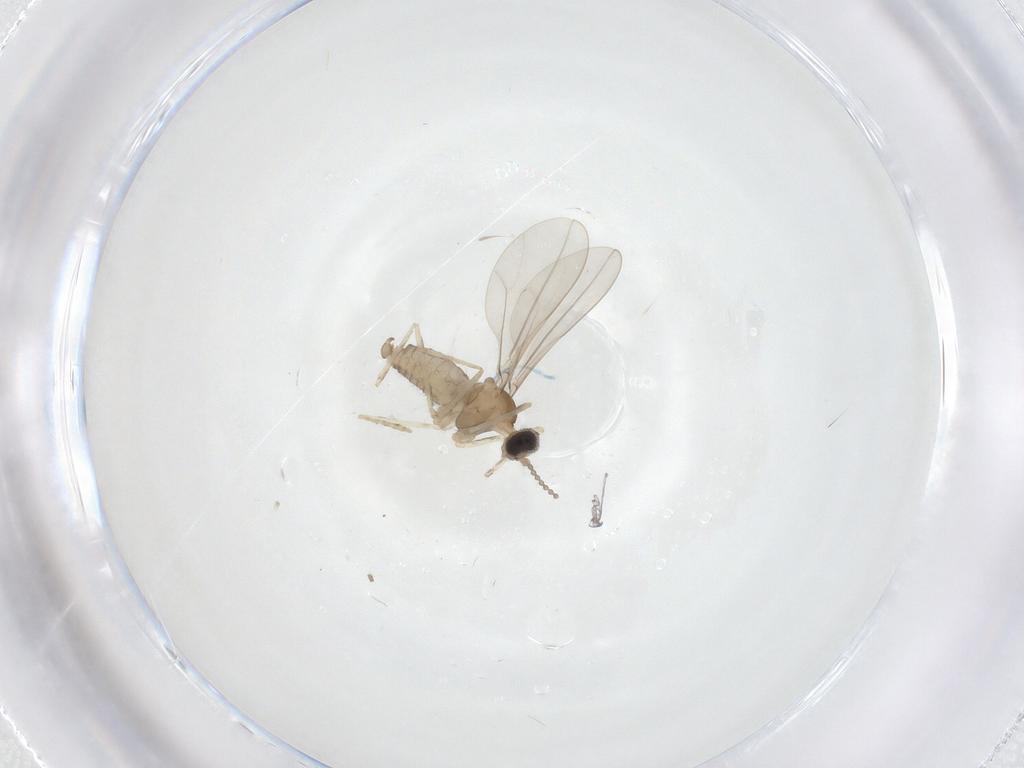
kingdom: Animalia
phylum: Arthropoda
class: Insecta
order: Diptera
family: Cecidomyiidae
